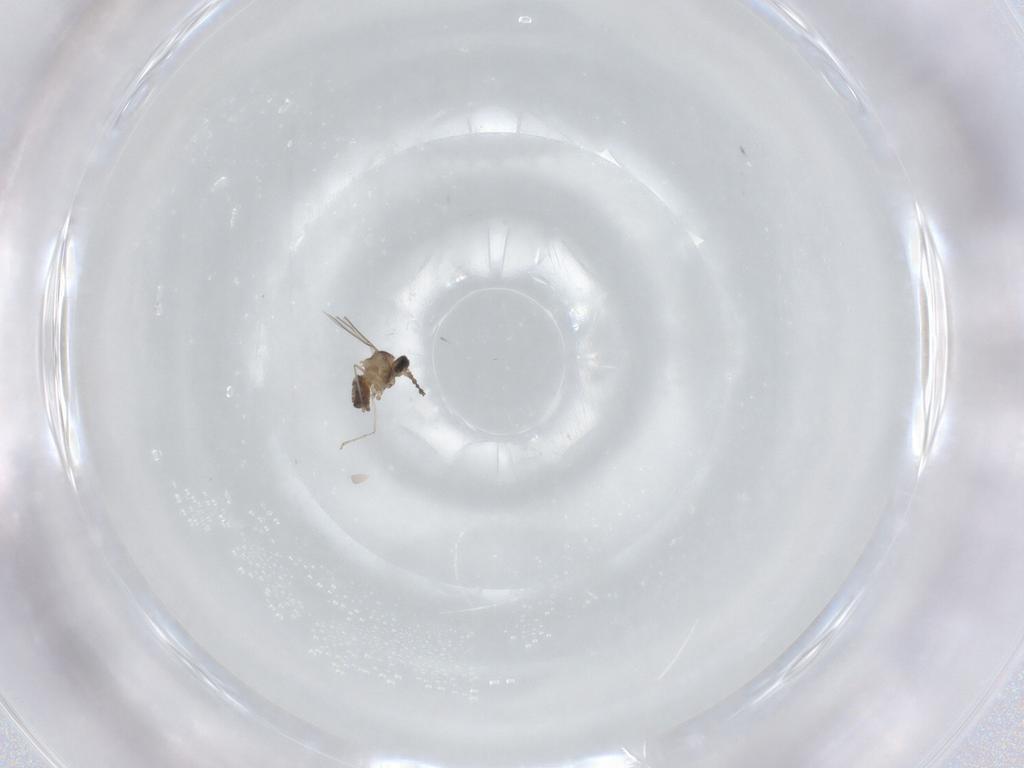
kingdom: Animalia
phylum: Arthropoda
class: Insecta
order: Diptera
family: Cecidomyiidae
